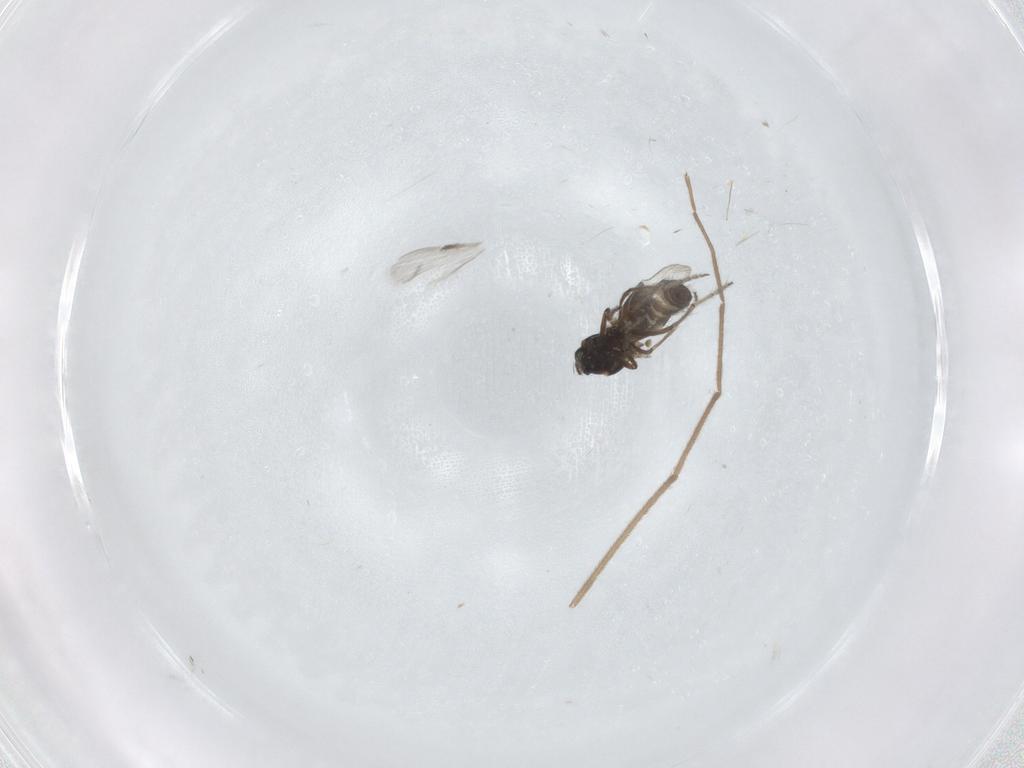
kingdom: Animalia
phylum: Arthropoda
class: Insecta
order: Diptera
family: Ceratopogonidae
